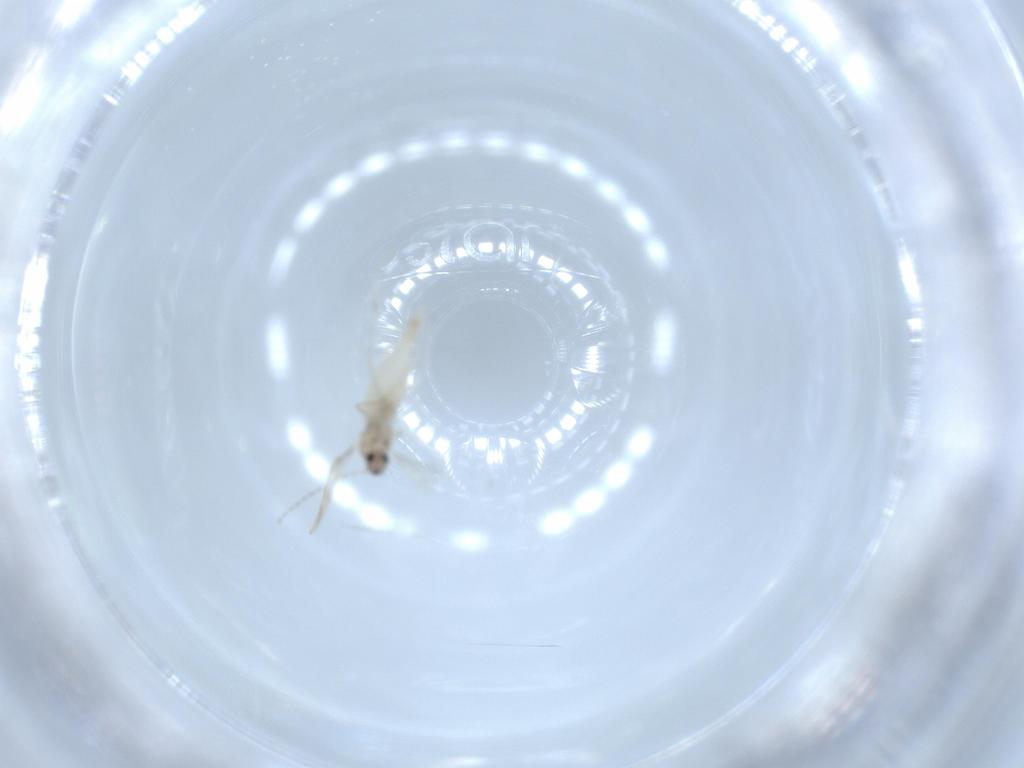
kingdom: Animalia
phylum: Arthropoda
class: Insecta
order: Diptera
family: Cecidomyiidae
